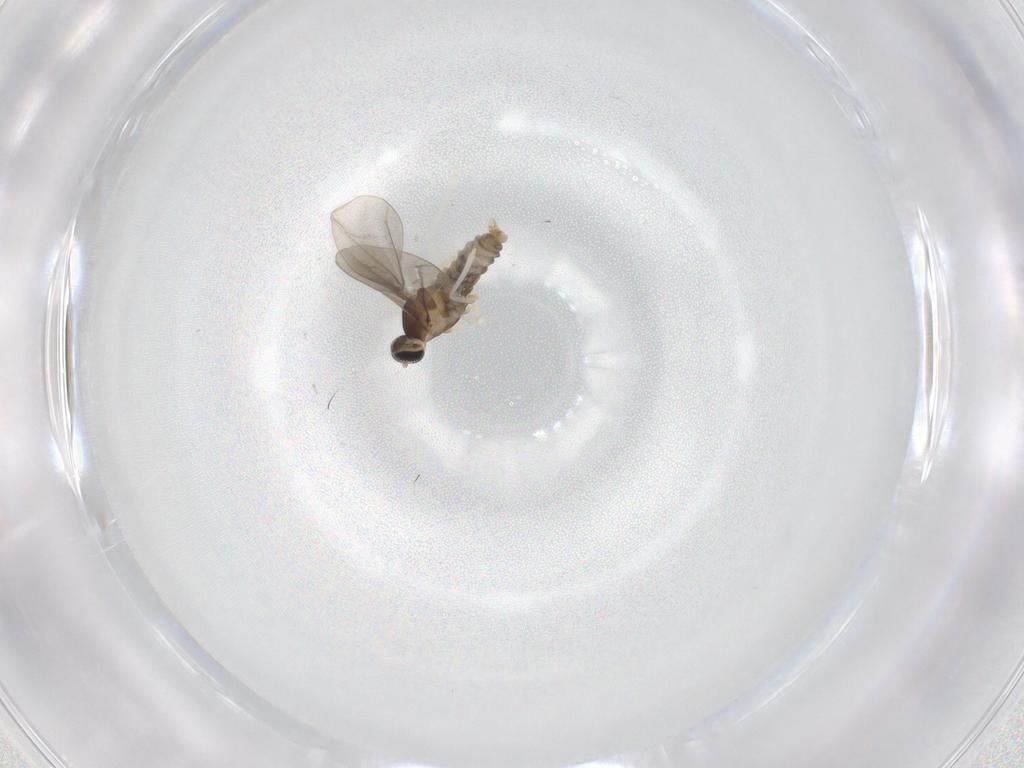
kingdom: Animalia
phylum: Arthropoda
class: Insecta
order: Diptera
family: Cecidomyiidae
